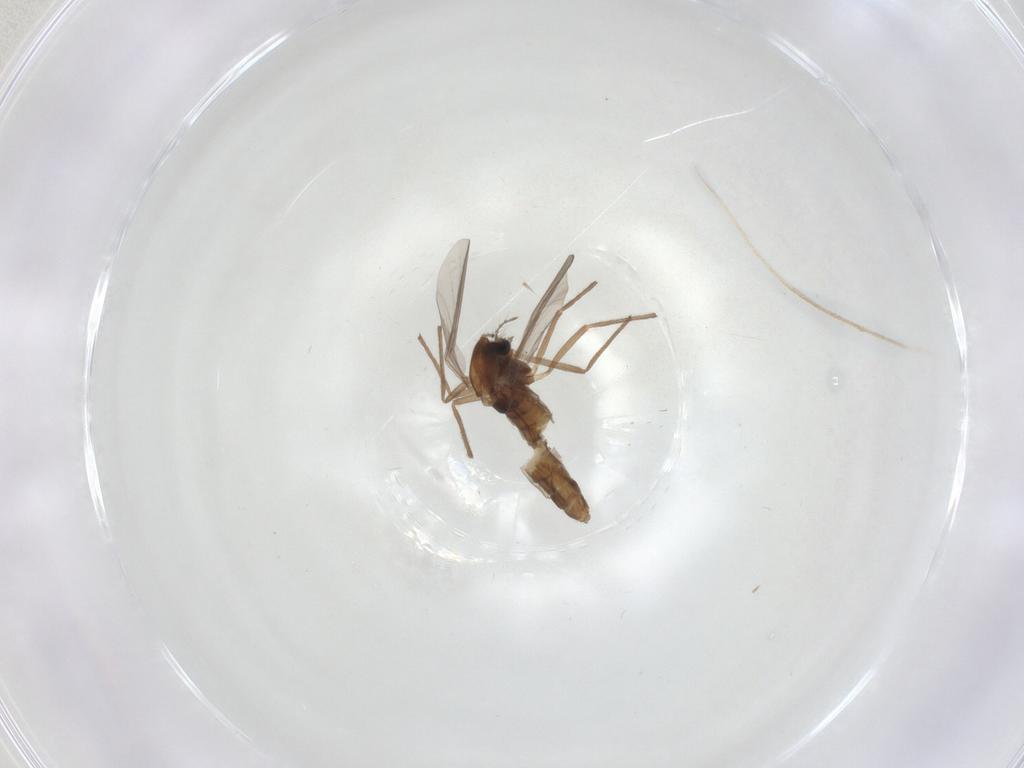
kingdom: Animalia
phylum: Arthropoda
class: Insecta
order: Diptera
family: Chironomidae
